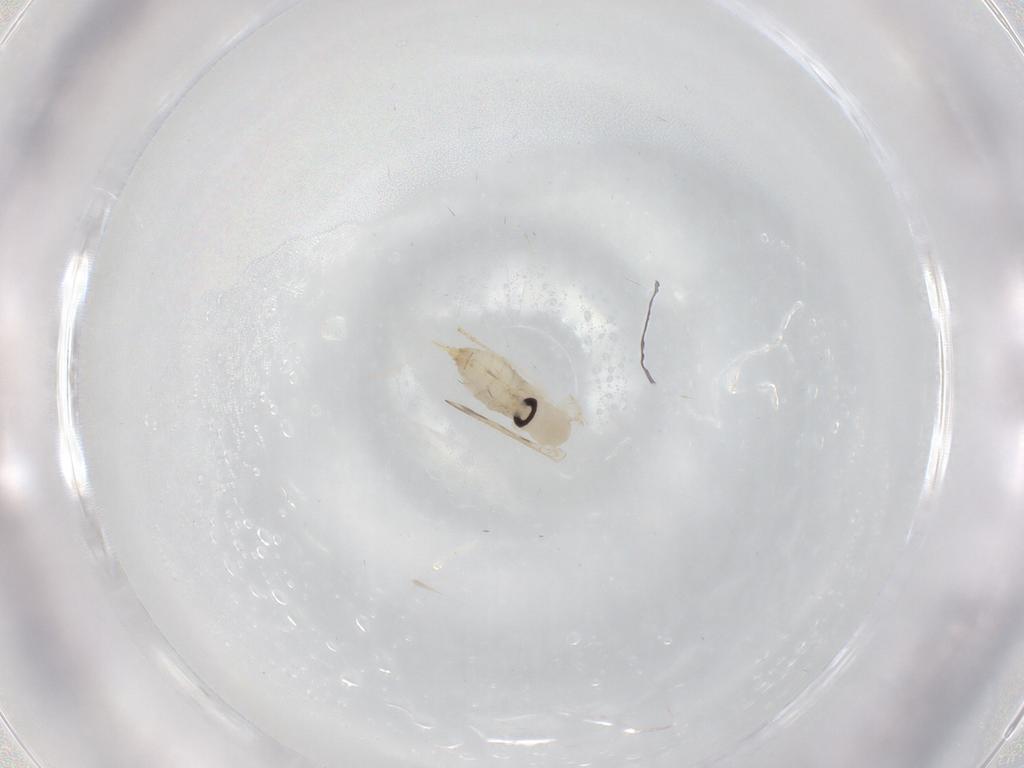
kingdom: Animalia
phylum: Arthropoda
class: Insecta
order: Diptera
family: Psychodidae
